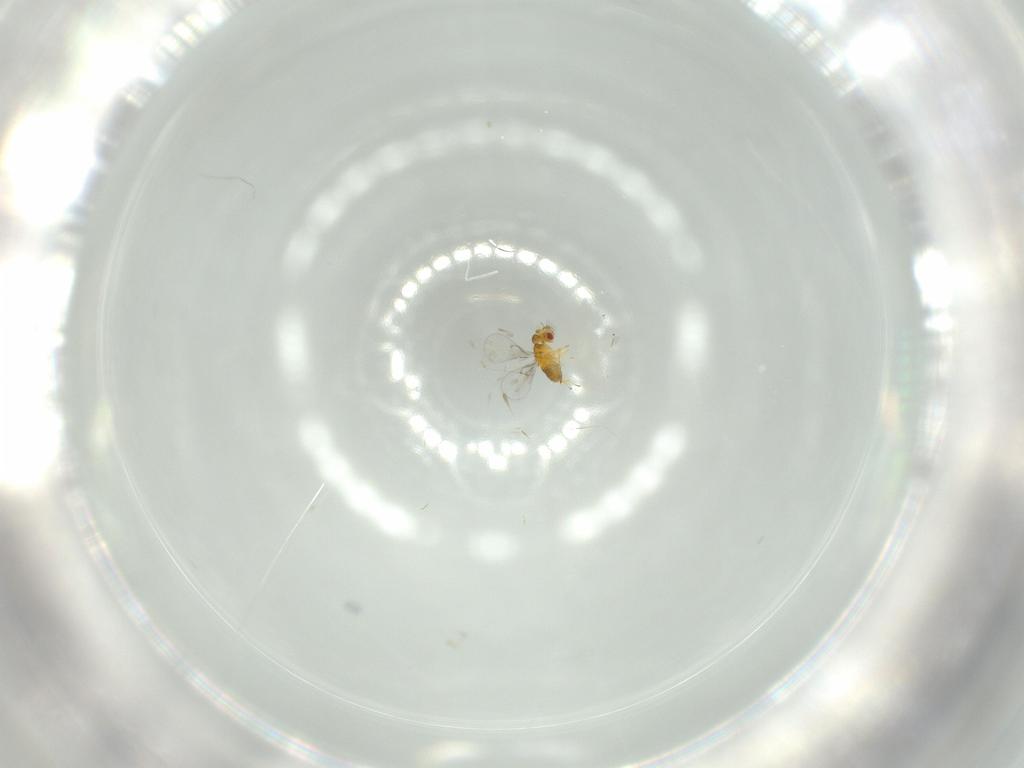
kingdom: Animalia
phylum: Arthropoda
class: Insecta
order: Hymenoptera
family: Trichogrammatidae
